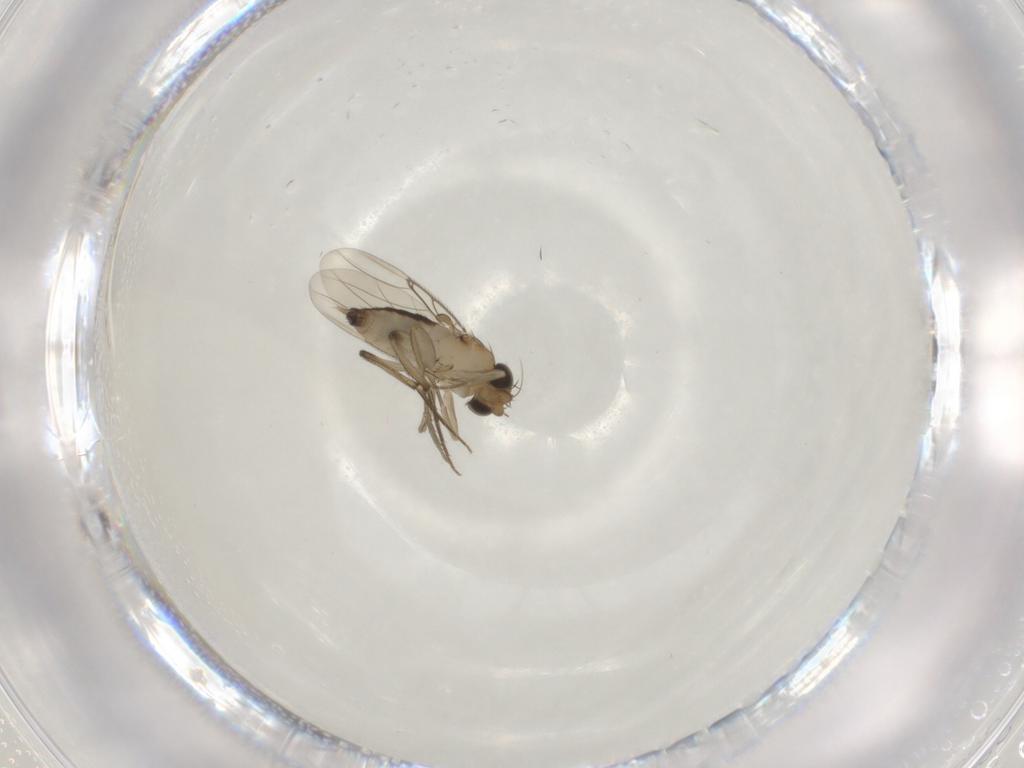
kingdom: Animalia
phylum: Arthropoda
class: Insecta
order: Diptera
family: Phoridae
